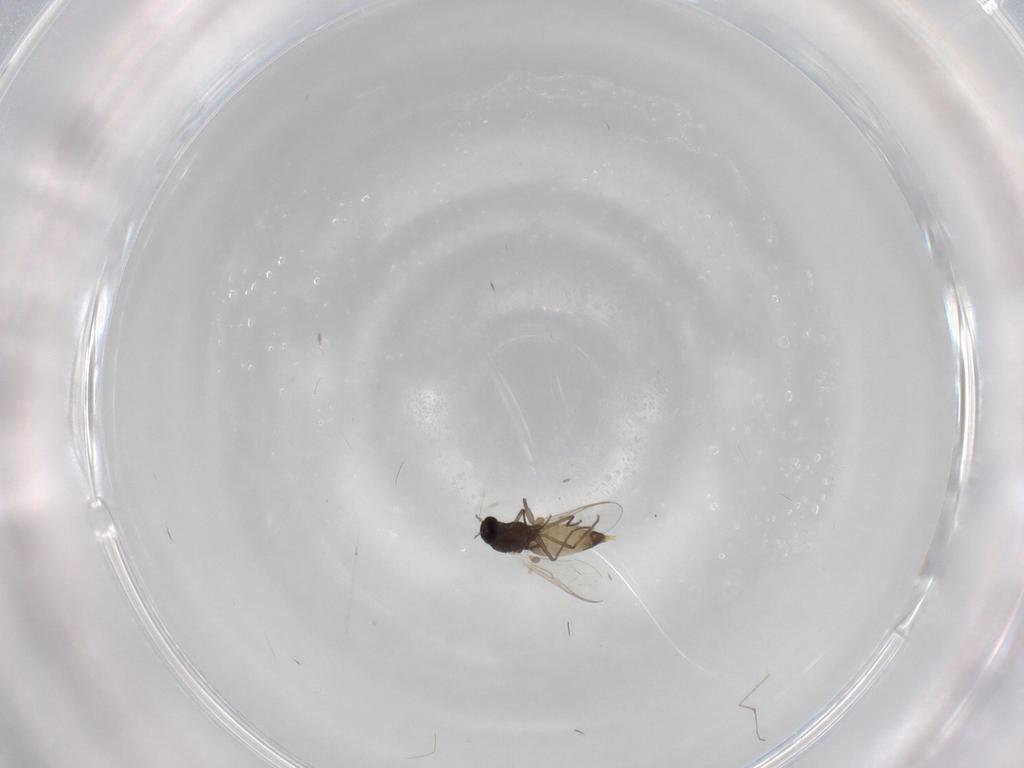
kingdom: Animalia
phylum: Arthropoda
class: Insecta
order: Diptera
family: Chironomidae
